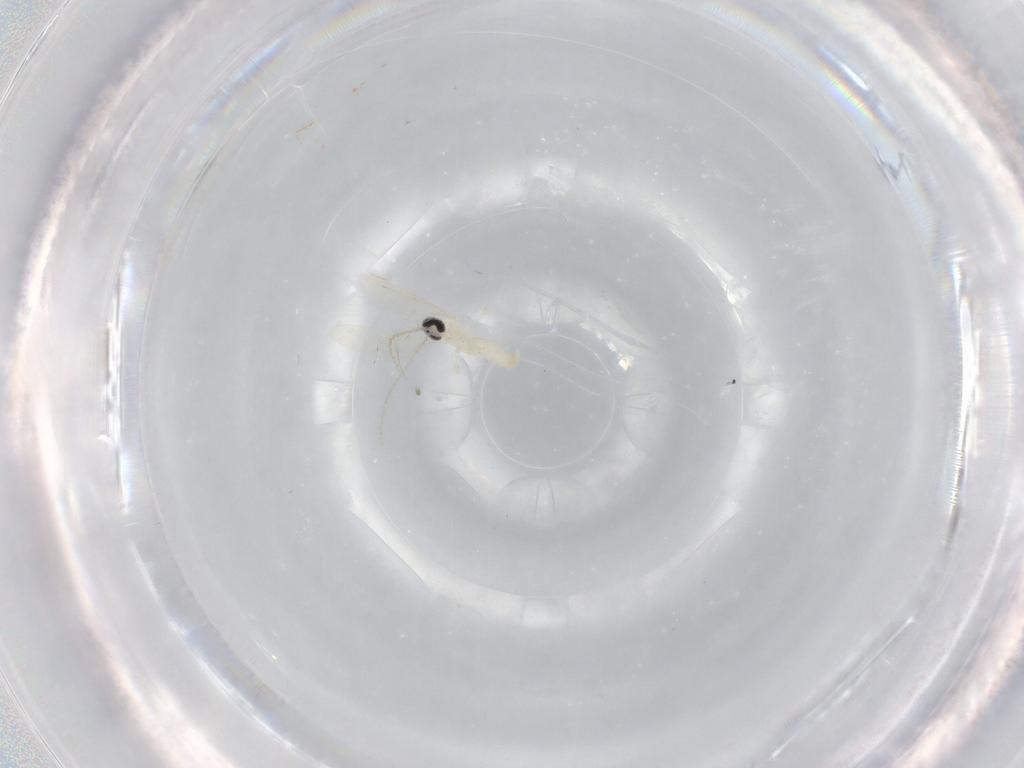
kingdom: Animalia
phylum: Arthropoda
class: Insecta
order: Diptera
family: Cecidomyiidae
